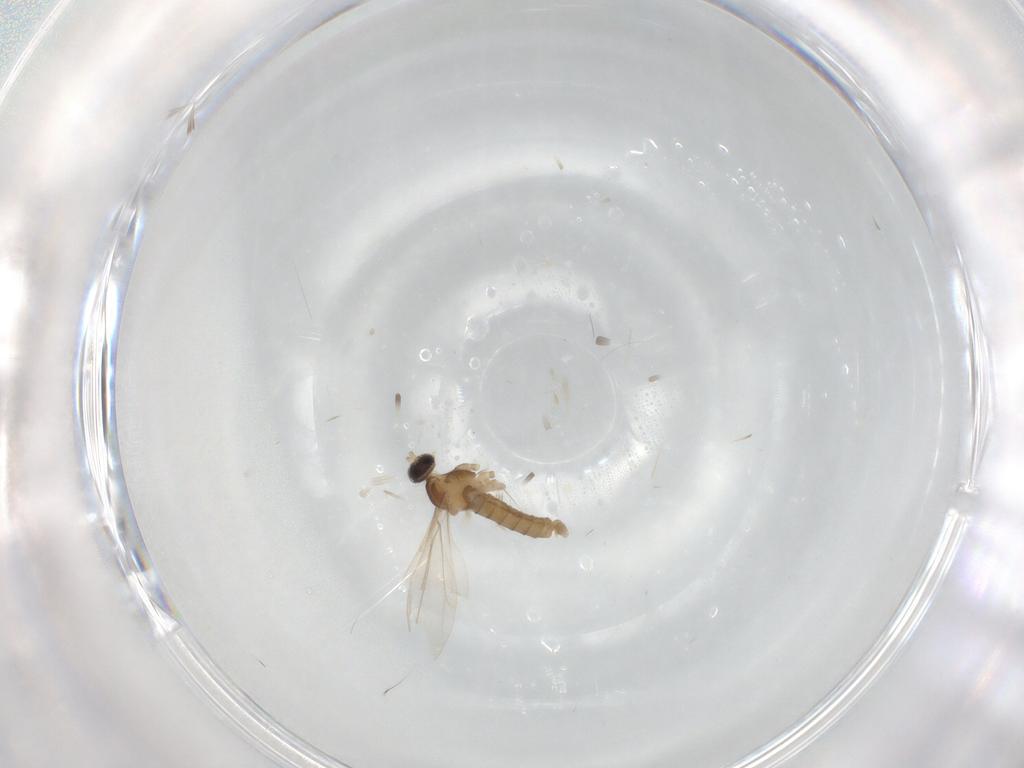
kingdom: Animalia
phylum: Arthropoda
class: Insecta
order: Diptera
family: Cecidomyiidae
